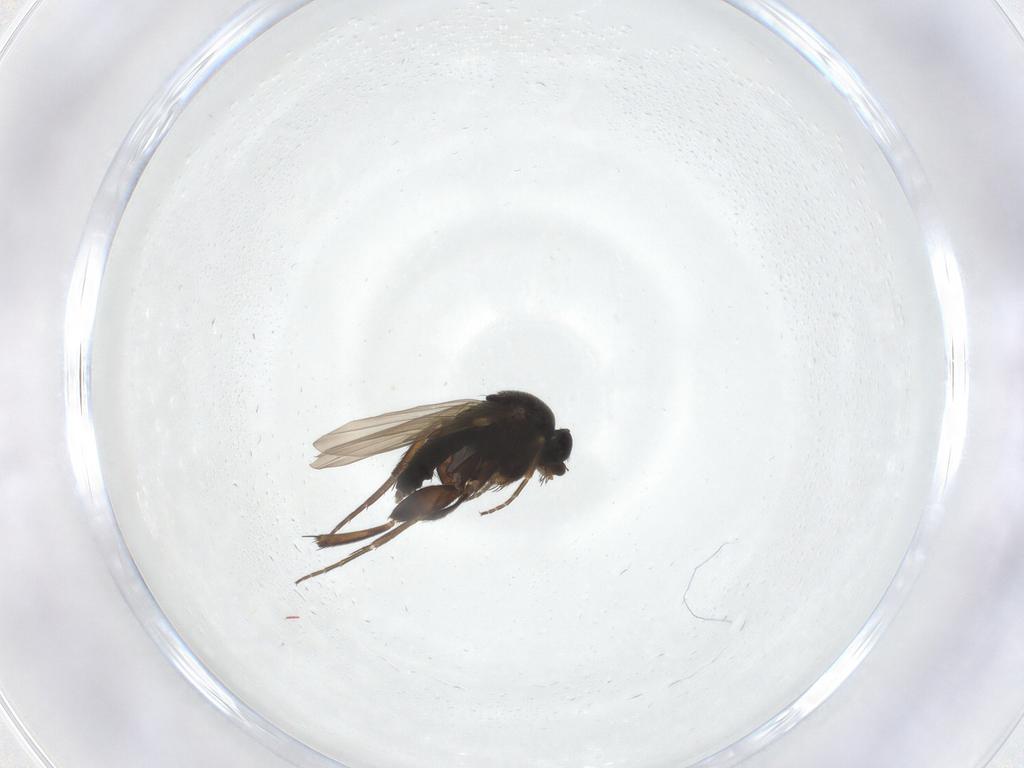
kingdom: Animalia
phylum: Arthropoda
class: Insecta
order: Diptera
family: Phoridae
